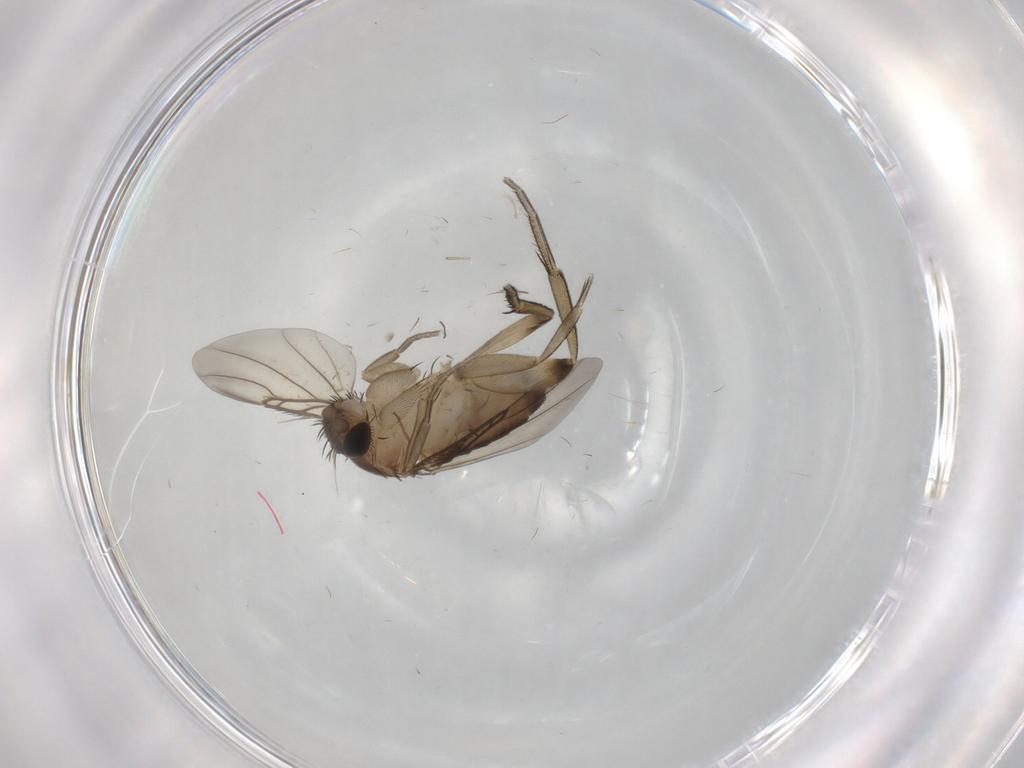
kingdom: Animalia
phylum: Arthropoda
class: Insecta
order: Diptera
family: Phoridae
